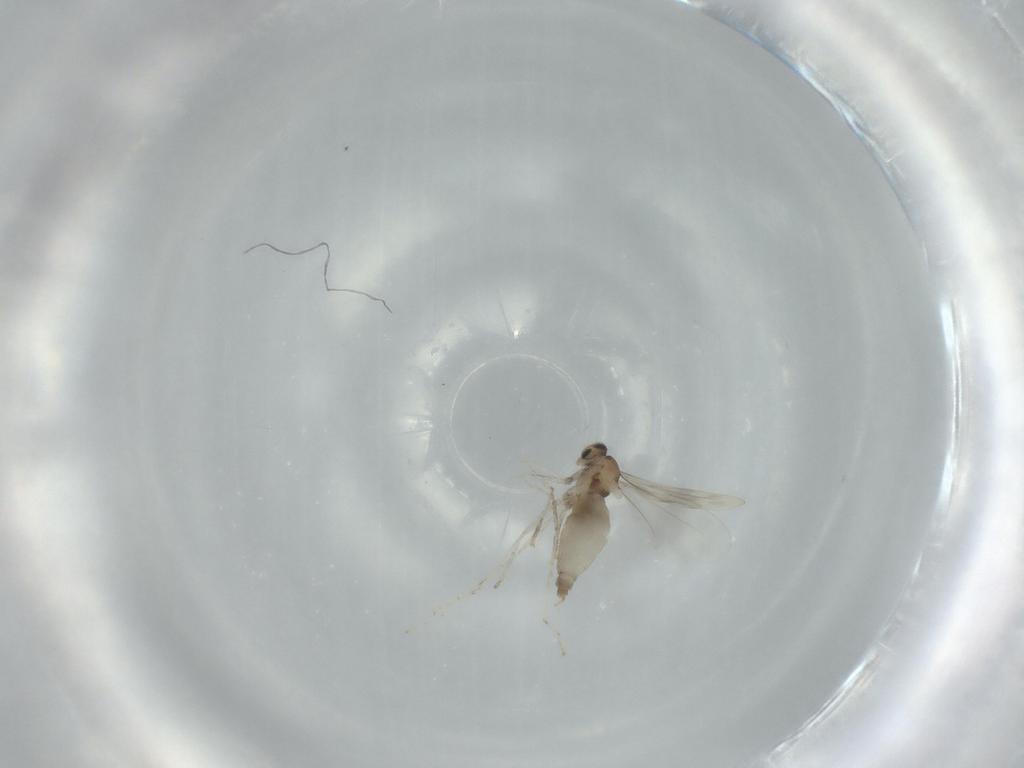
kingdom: Animalia
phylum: Arthropoda
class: Insecta
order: Diptera
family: Cecidomyiidae
